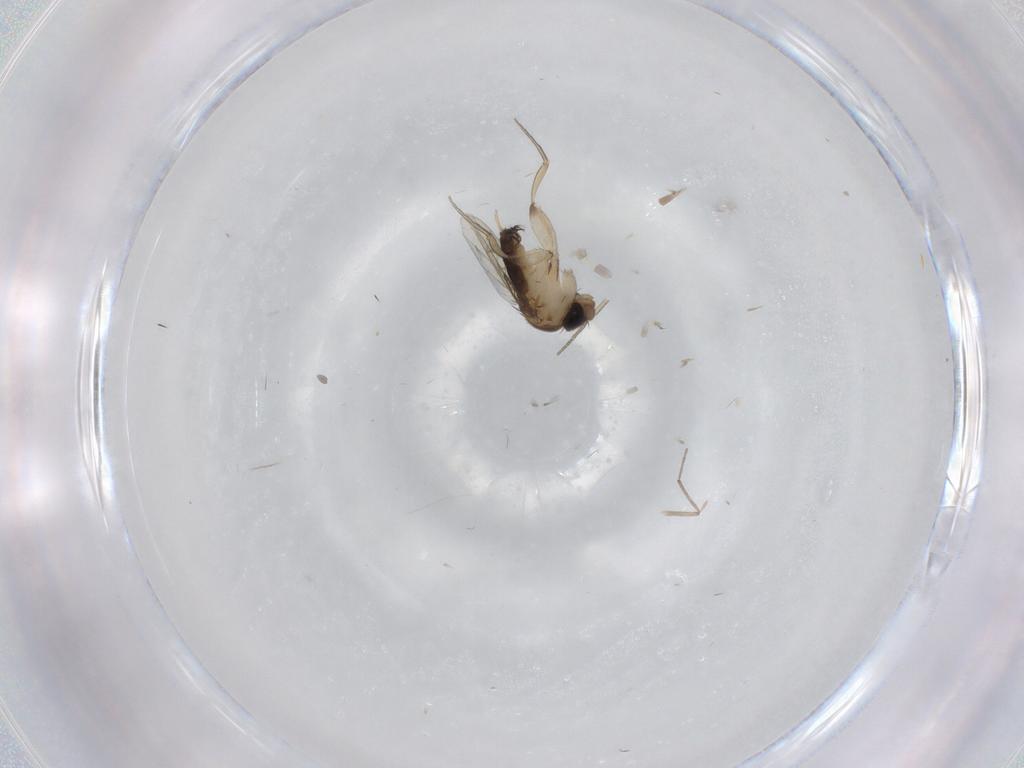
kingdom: Animalia
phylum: Arthropoda
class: Insecta
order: Diptera
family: Phoridae
